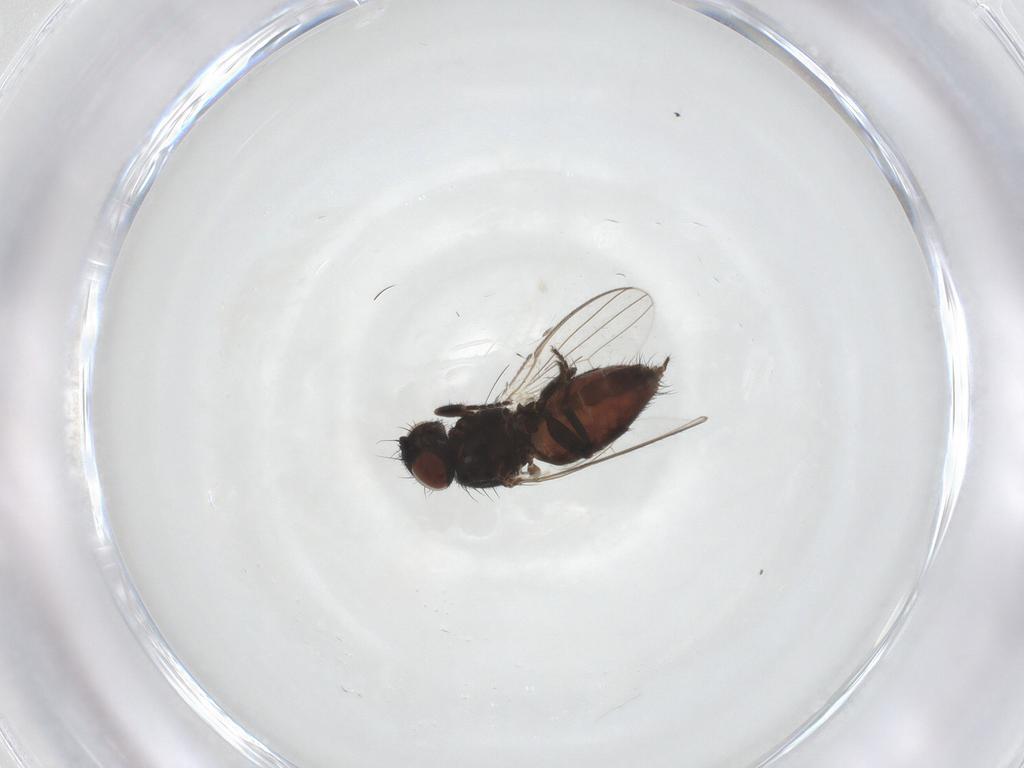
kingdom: Animalia
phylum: Arthropoda
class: Insecta
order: Diptera
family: Milichiidae
